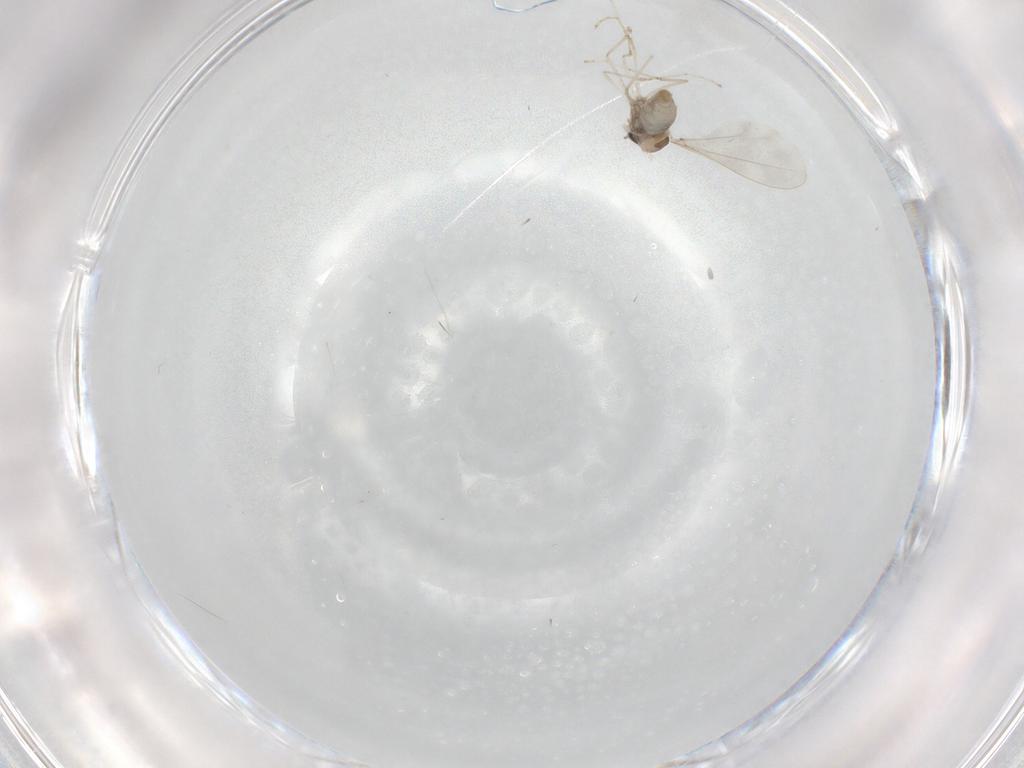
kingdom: Animalia
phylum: Arthropoda
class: Insecta
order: Diptera
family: Cecidomyiidae
